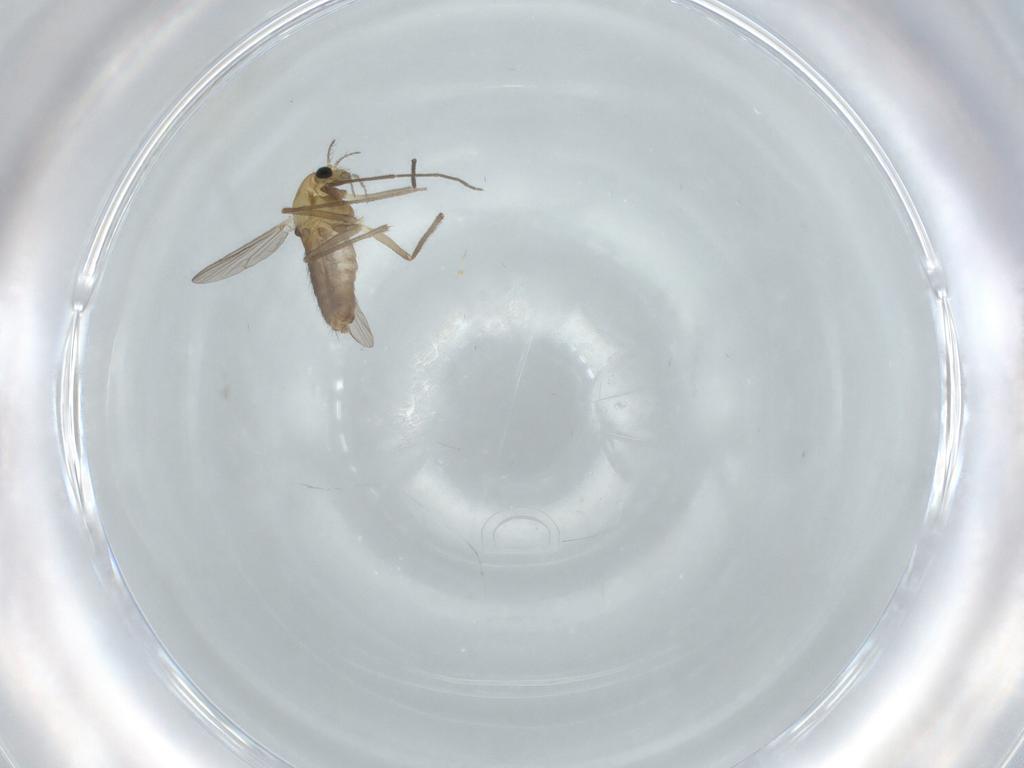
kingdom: Animalia
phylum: Arthropoda
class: Insecta
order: Diptera
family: Chironomidae
